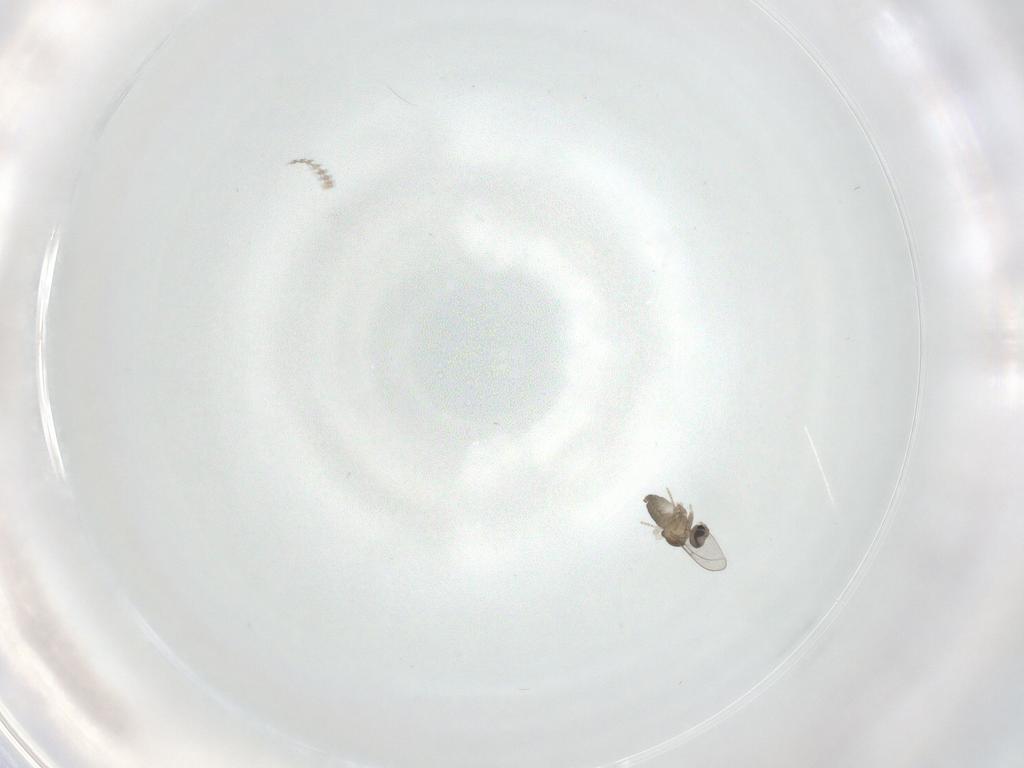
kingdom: Animalia
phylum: Arthropoda
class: Insecta
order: Diptera
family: Cecidomyiidae
